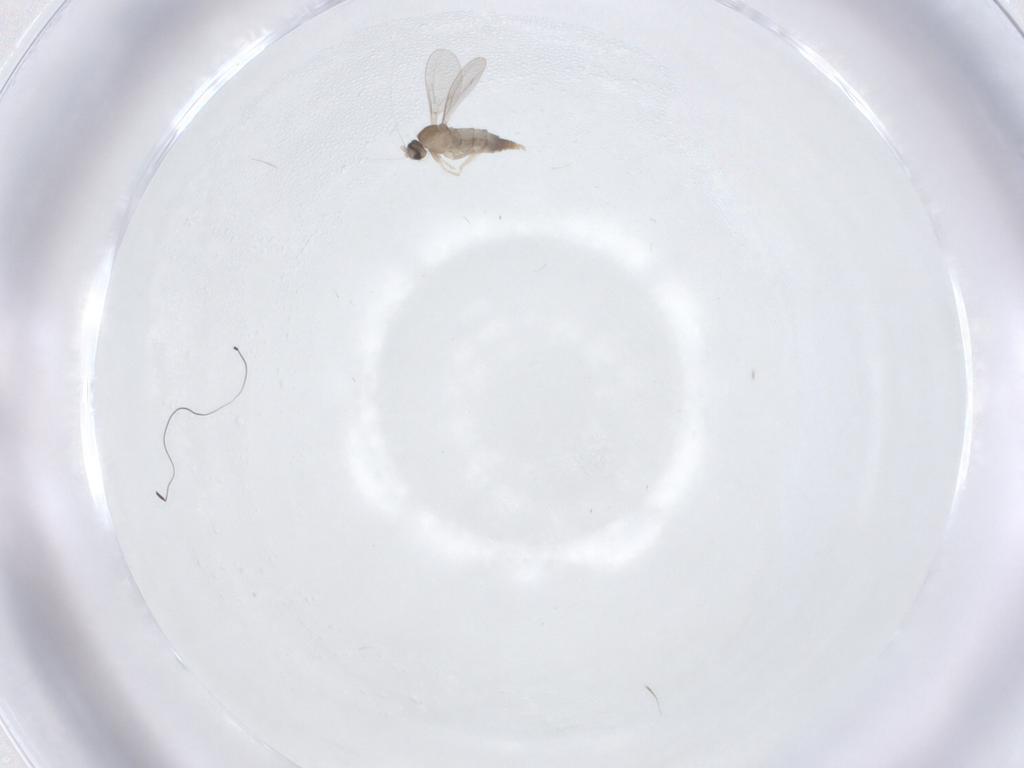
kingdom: Animalia
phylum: Arthropoda
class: Insecta
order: Diptera
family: Cecidomyiidae
